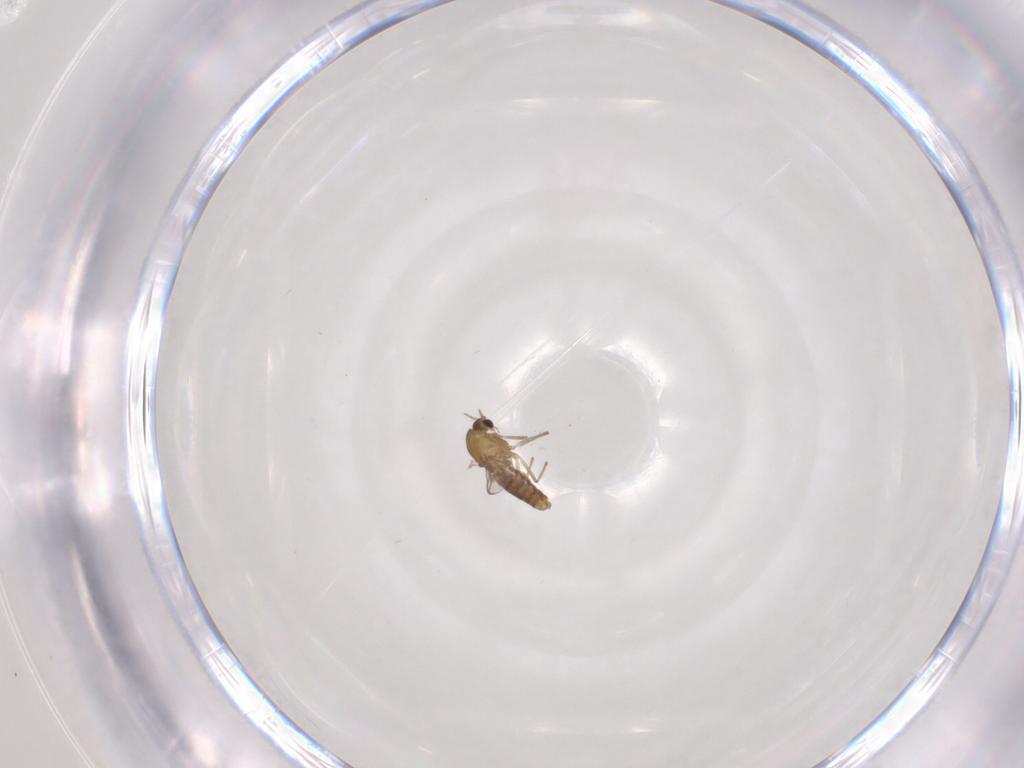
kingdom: Animalia
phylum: Arthropoda
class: Insecta
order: Diptera
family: Chironomidae
